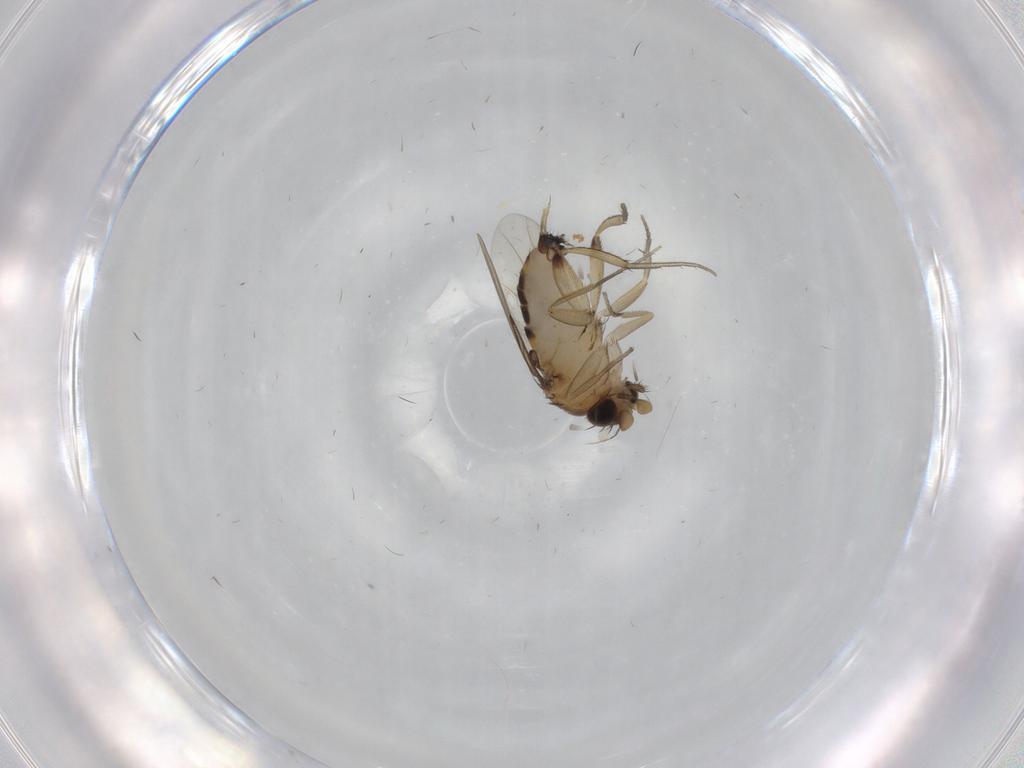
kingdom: Animalia
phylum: Arthropoda
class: Insecta
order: Diptera
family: Phoridae
